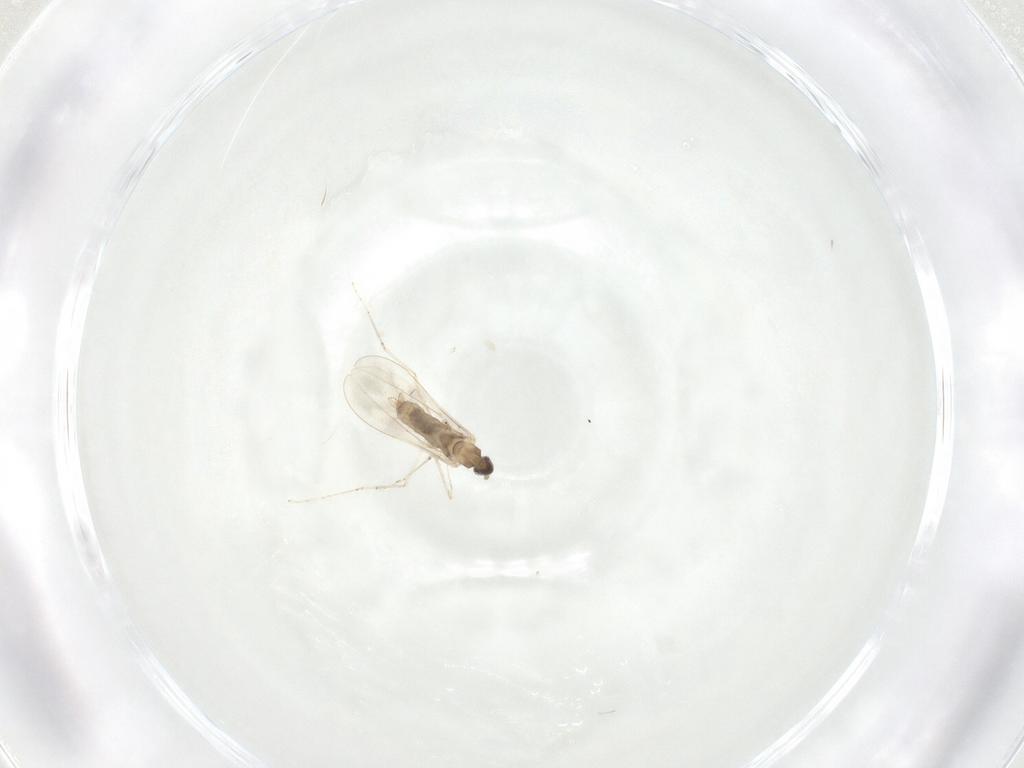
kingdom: Animalia
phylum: Arthropoda
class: Insecta
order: Diptera
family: Cecidomyiidae
